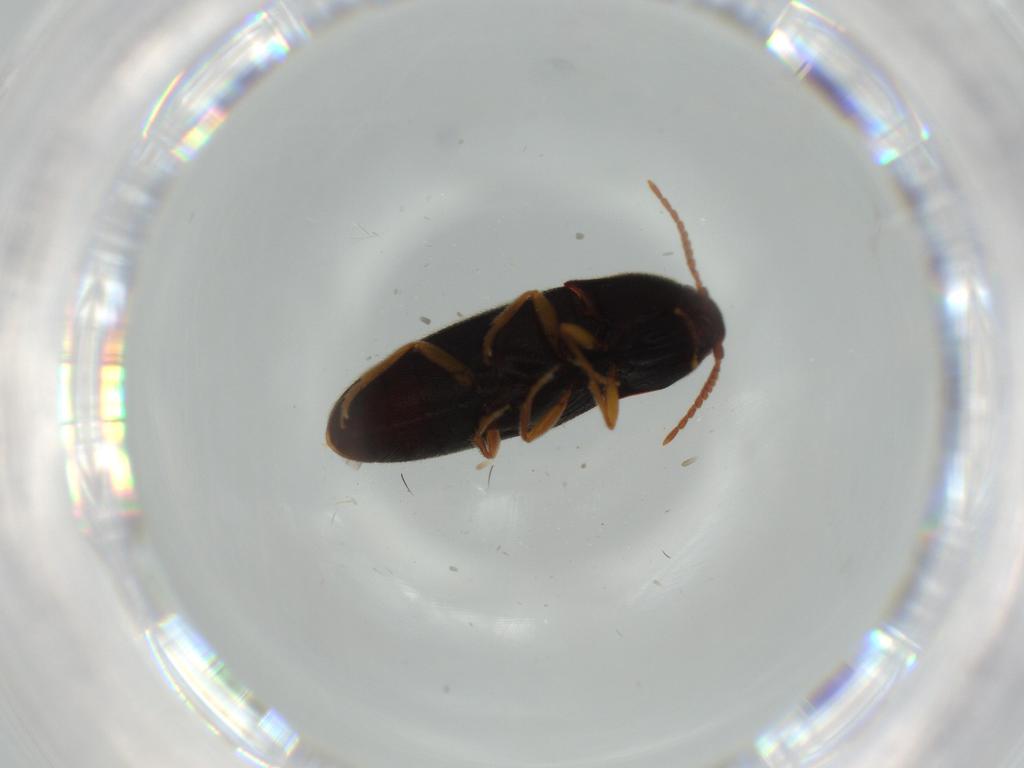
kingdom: Animalia
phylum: Arthropoda
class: Insecta
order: Coleoptera
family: Elateridae
